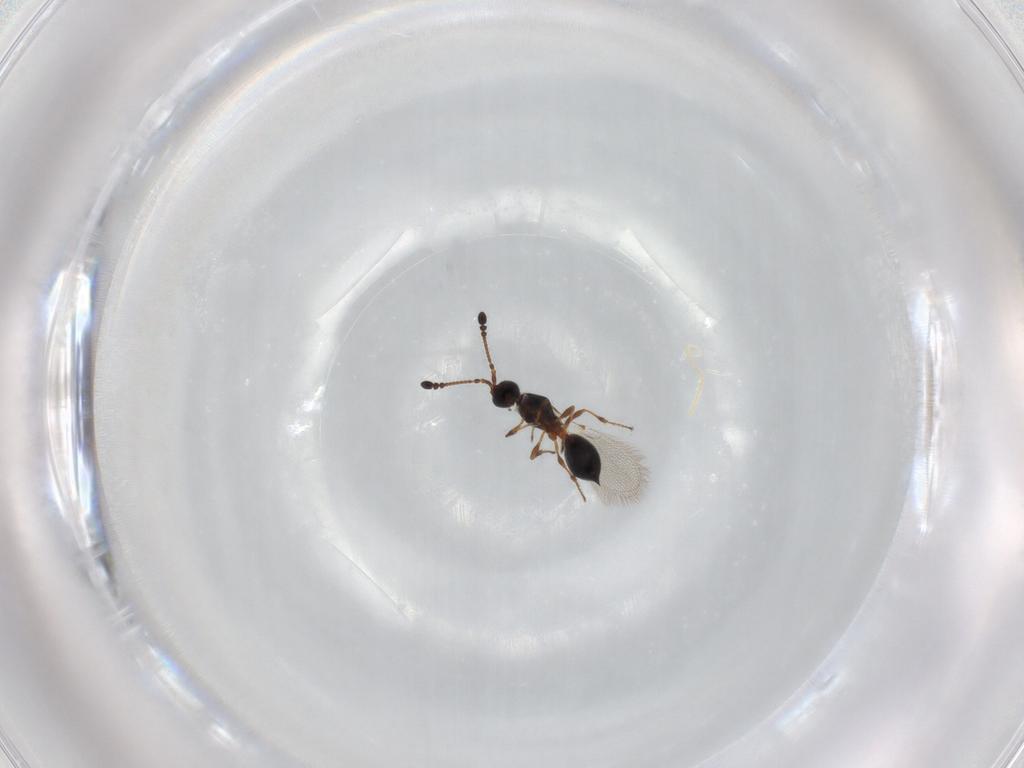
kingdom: Animalia
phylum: Arthropoda
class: Insecta
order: Hymenoptera
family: Diapriidae
